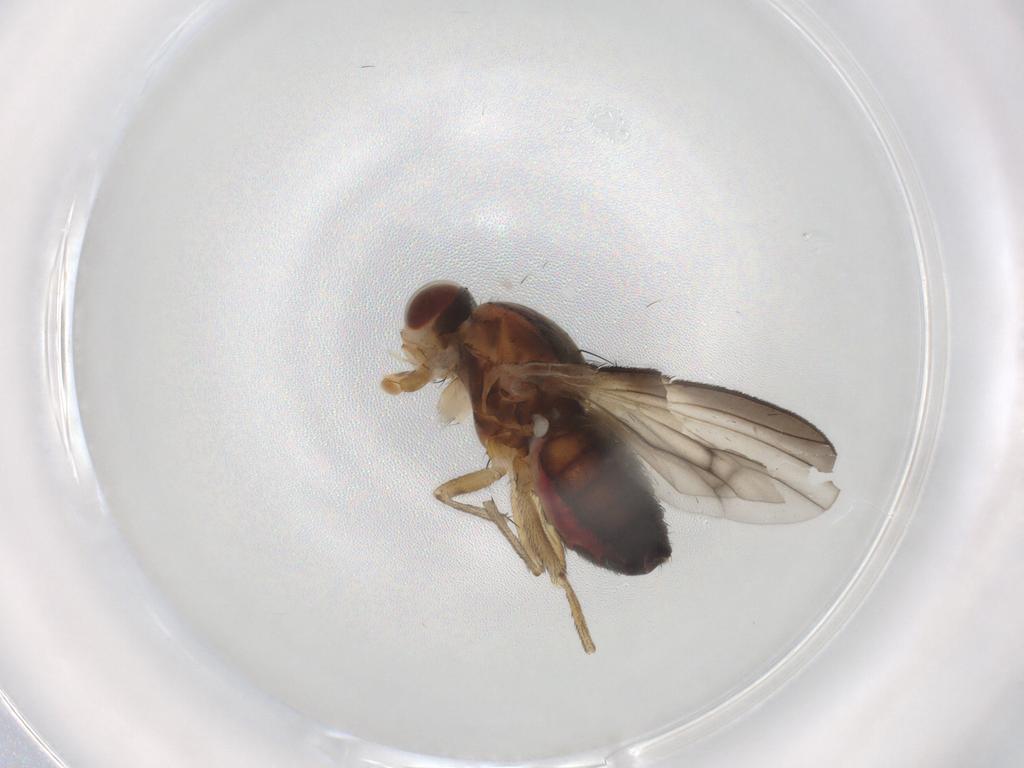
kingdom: Animalia
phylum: Arthropoda
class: Insecta
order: Diptera
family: Heleomyzidae
